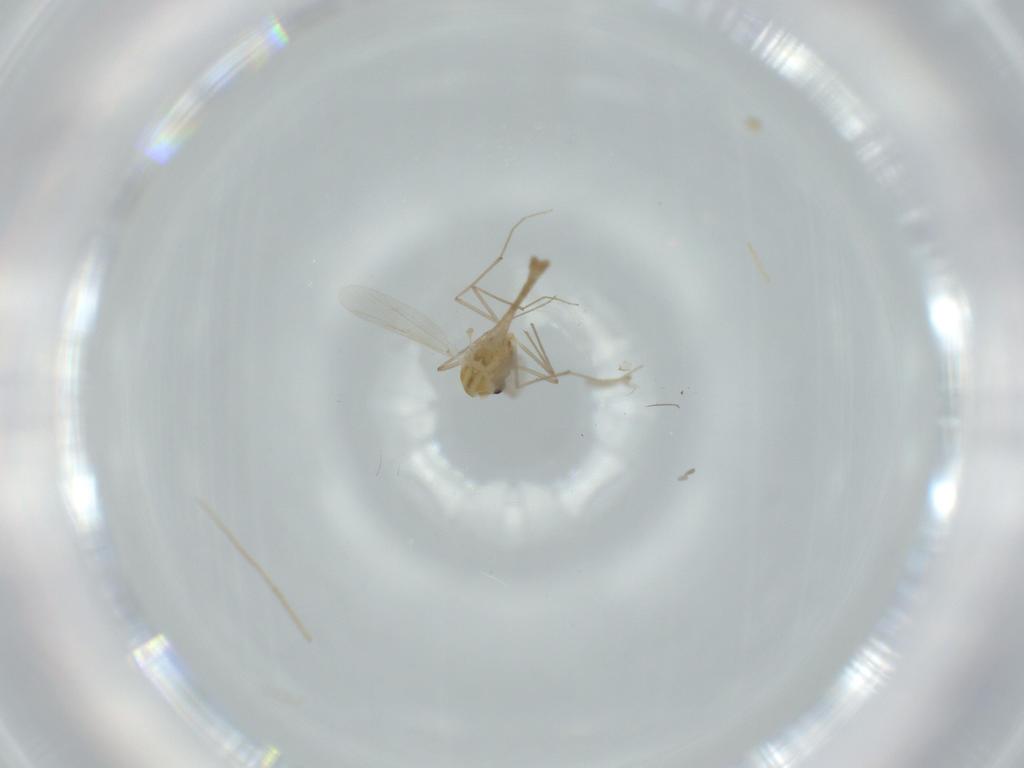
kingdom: Animalia
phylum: Arthropoda
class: Insecta
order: Diptera
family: Cecidomyiidae
